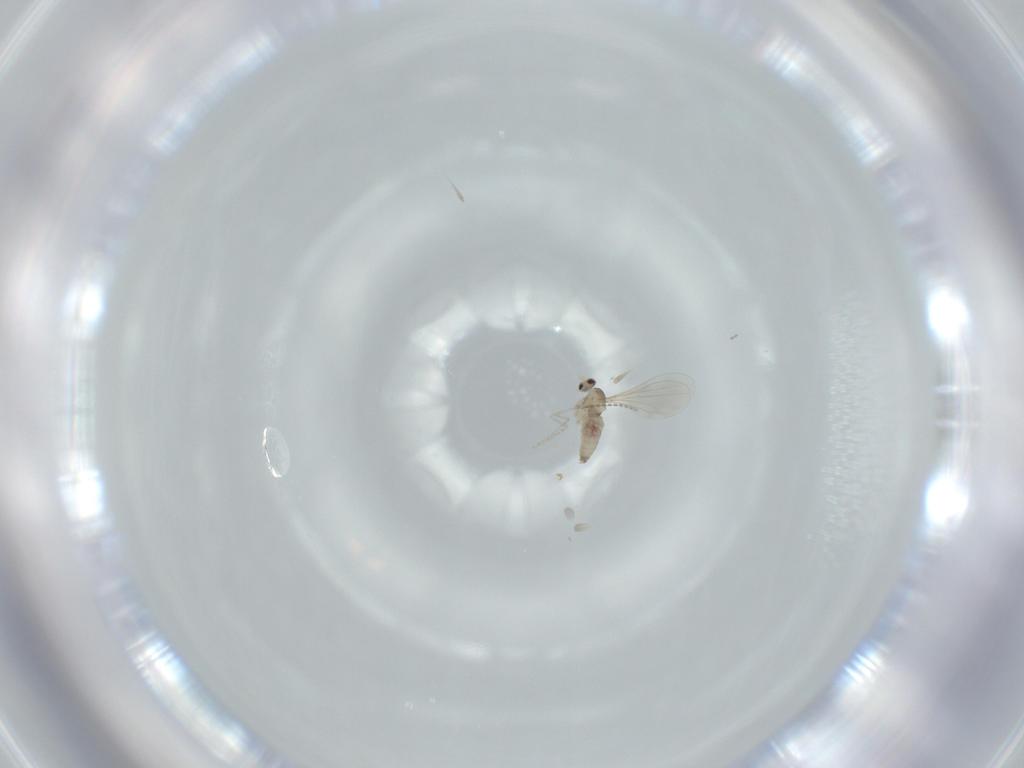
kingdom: Animalia
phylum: Arthropoda
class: Insecta
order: Diptera
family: Cecidomyiidae
